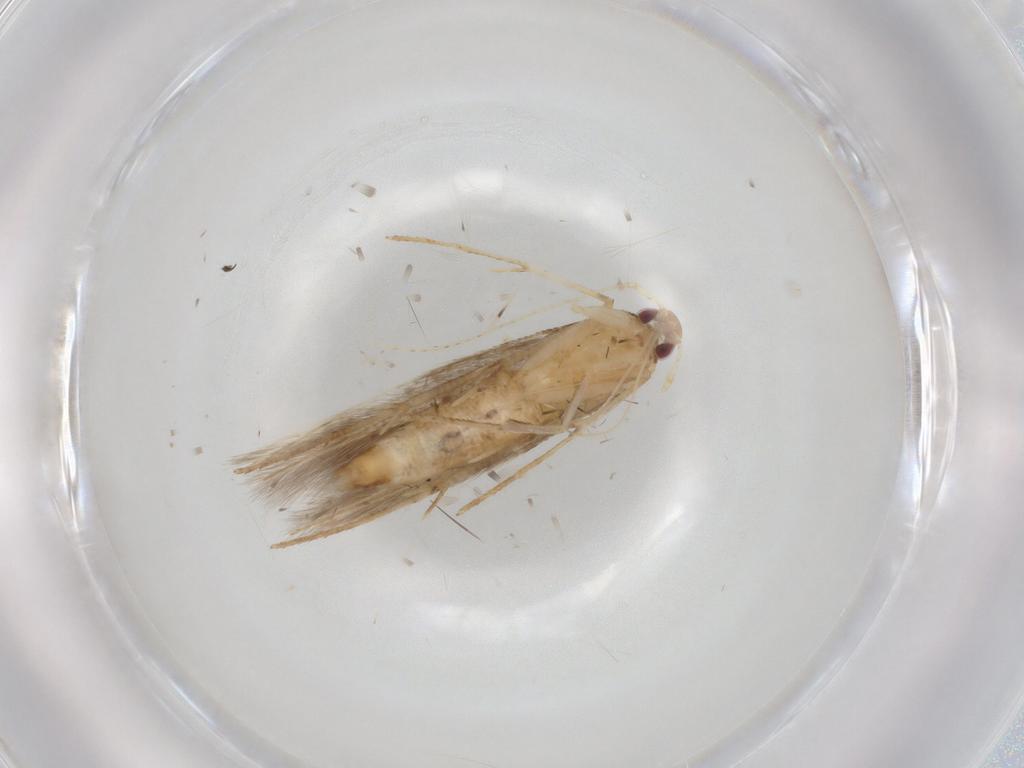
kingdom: Animalia
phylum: Arthropoda
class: Insecta
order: Lepidoptera
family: Cosmopterigidae
